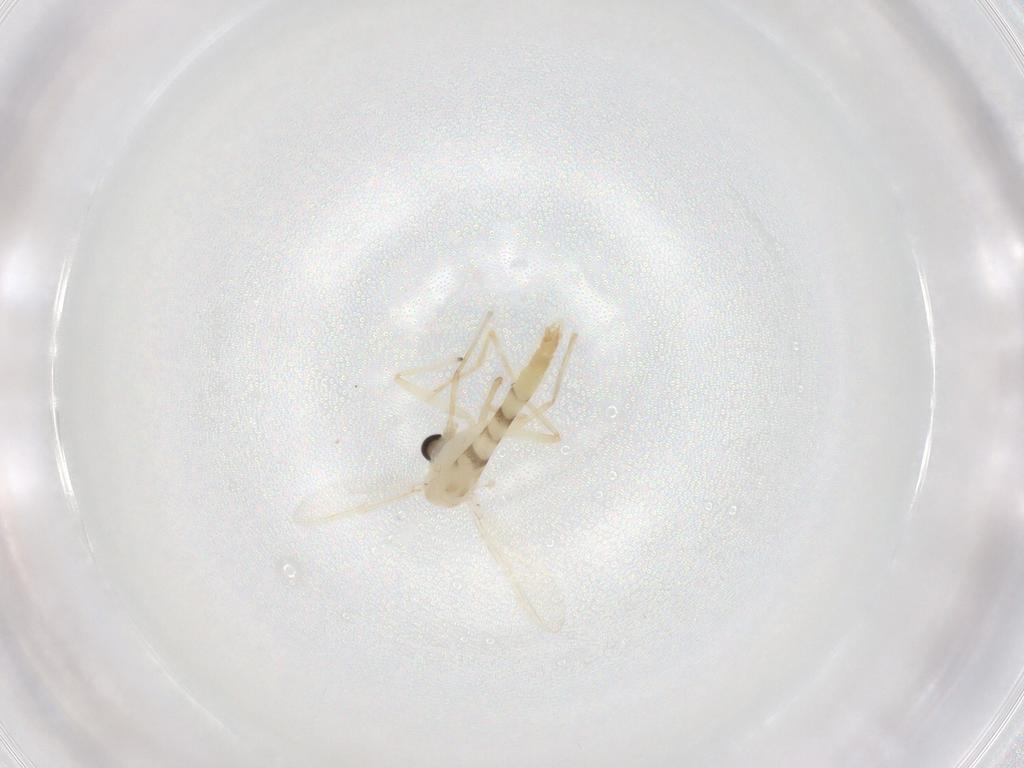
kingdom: Animalia
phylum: Arthropoda
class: Insecta
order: Diptera
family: Chironomidae
